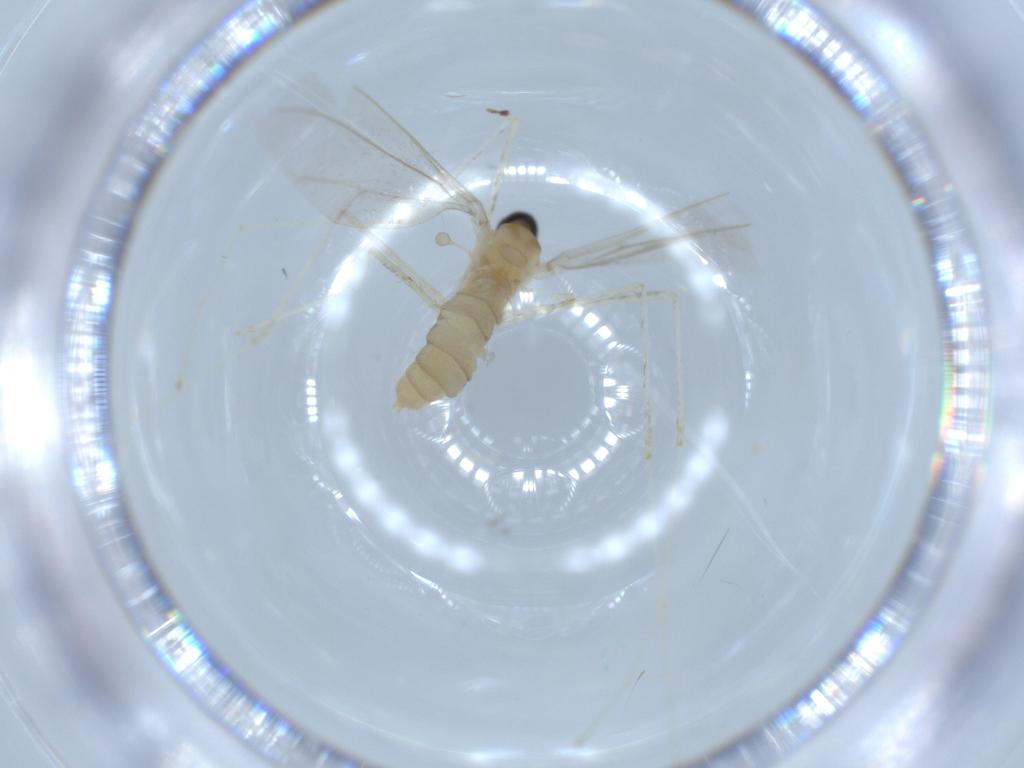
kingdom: Animalia
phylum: Arthropoda
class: Insecta
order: Diptera
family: Cecidomyiidae
